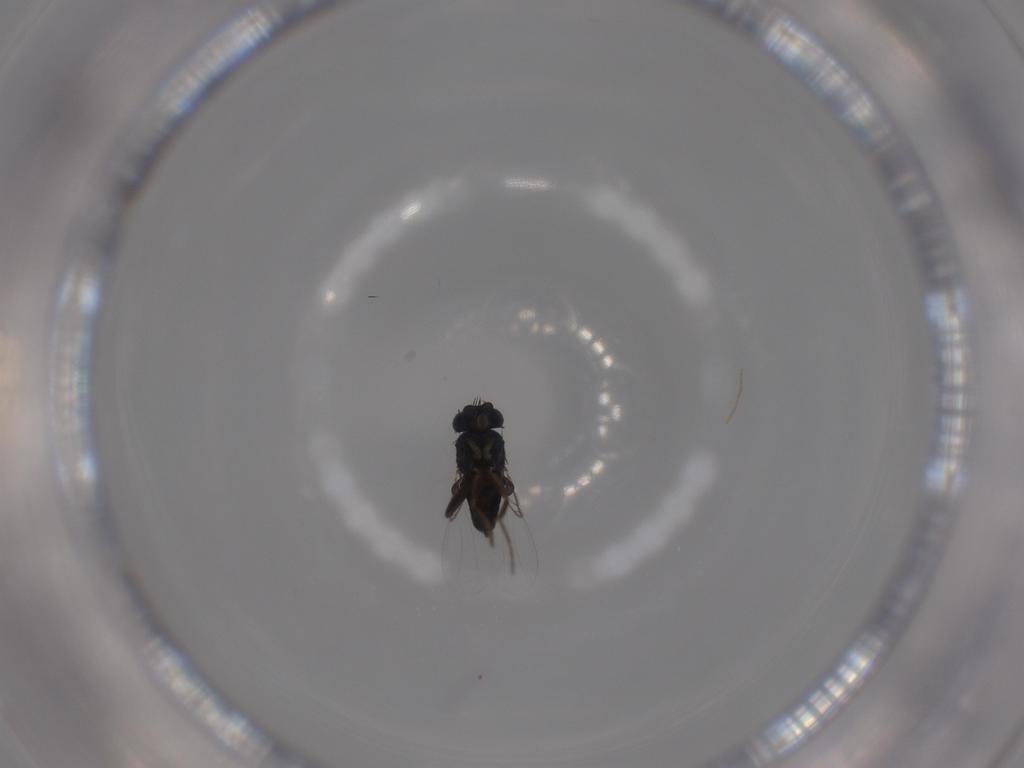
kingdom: Animalia
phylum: Arthropoda
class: Insecta
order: Diptera
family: Phoridae
